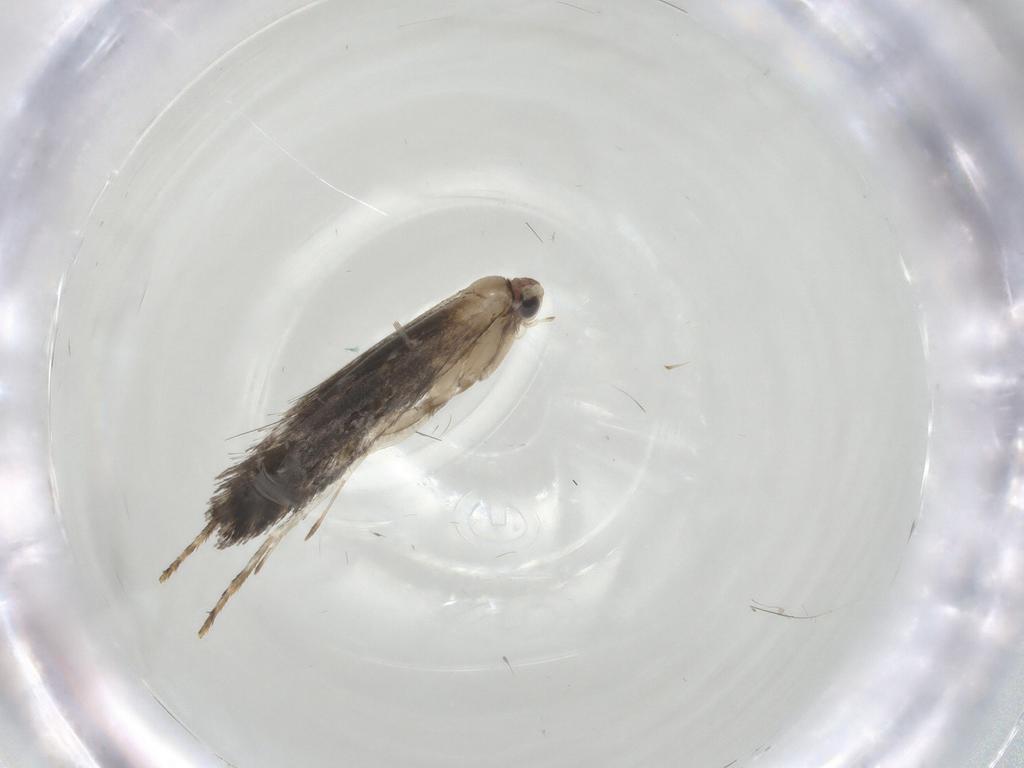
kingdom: Animalia
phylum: Arthropoda
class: Insecta
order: Lepidoptera
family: Tineidae
